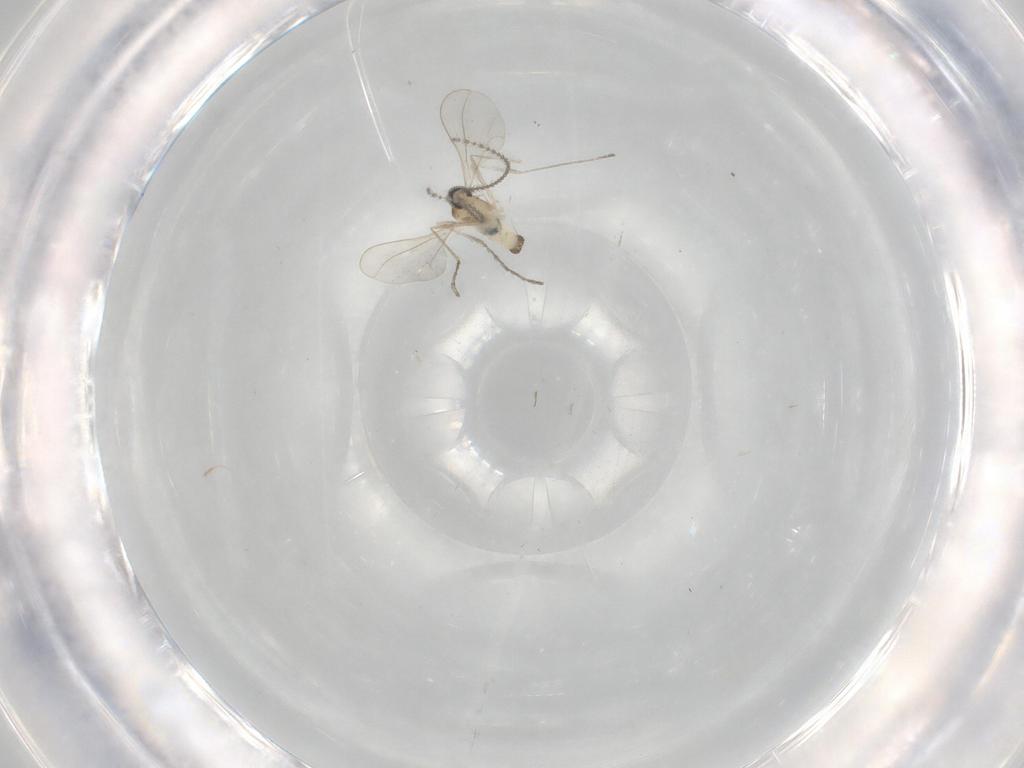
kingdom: Animalia
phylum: Arthropoda
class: Insecta
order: Diptera
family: Cecidomyiidae
